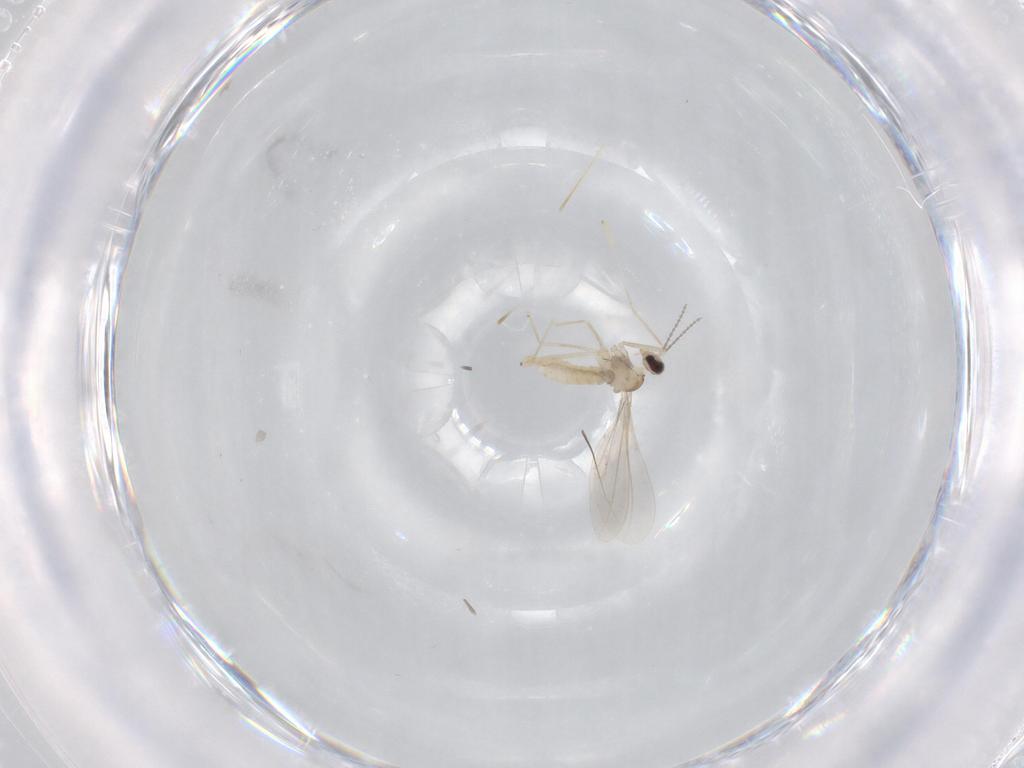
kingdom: Animalia
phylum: Arthropoda
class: Insecta
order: Diptera
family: Cecidomyiidae
